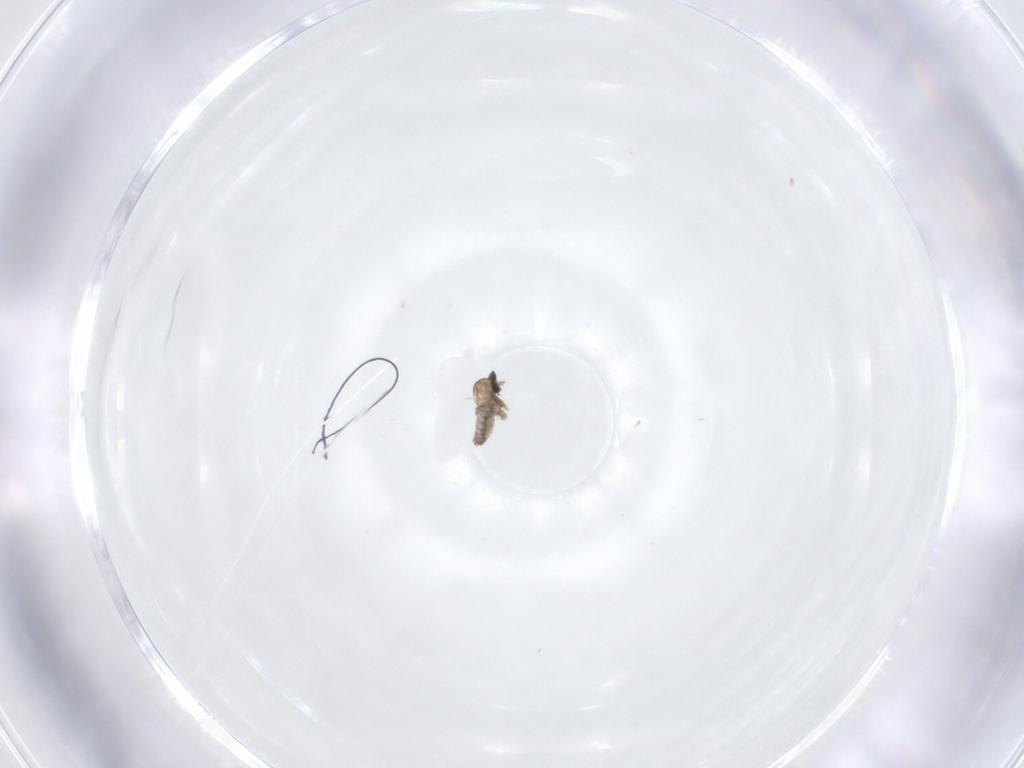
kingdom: Animalia
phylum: Arthropoda
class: Insecta
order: Diptera
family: Cecidomyiidae
